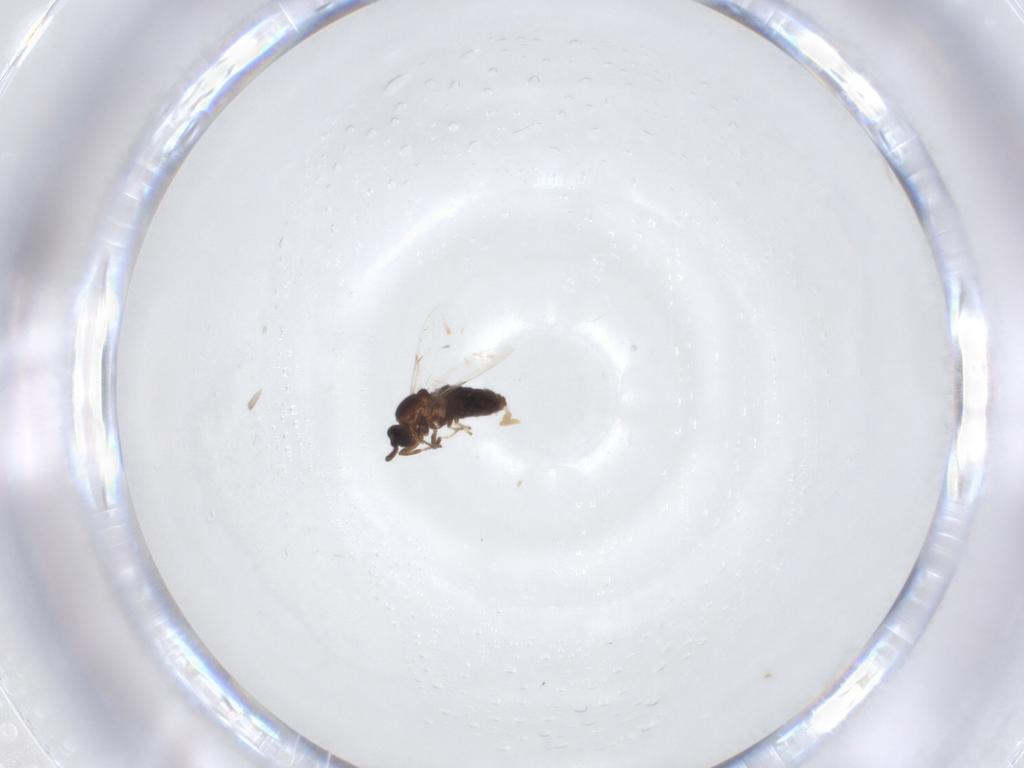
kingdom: Animalia
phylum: Arthropoda
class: Insecta
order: Diptera
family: Scatopsidae
